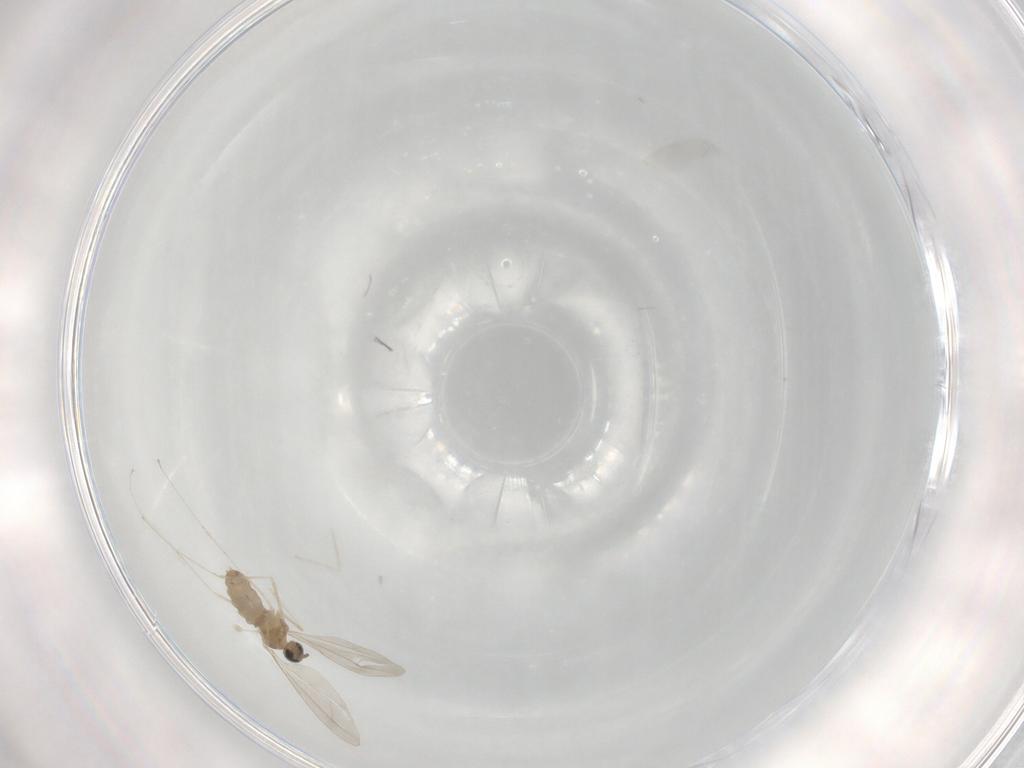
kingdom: Animalia
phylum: Arthropoda
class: Insecta
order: Diptera
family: Cecidomyiidae
